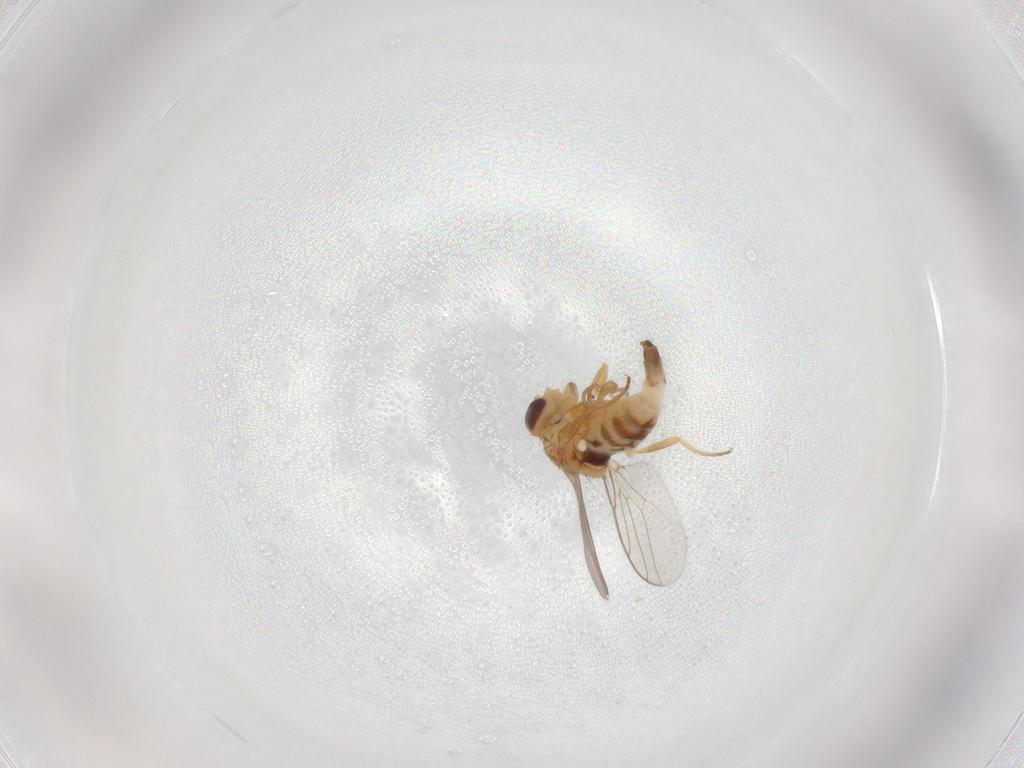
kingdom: Animalia
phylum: Arthropoda
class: Insecta
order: Diptera
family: Chloropidae
